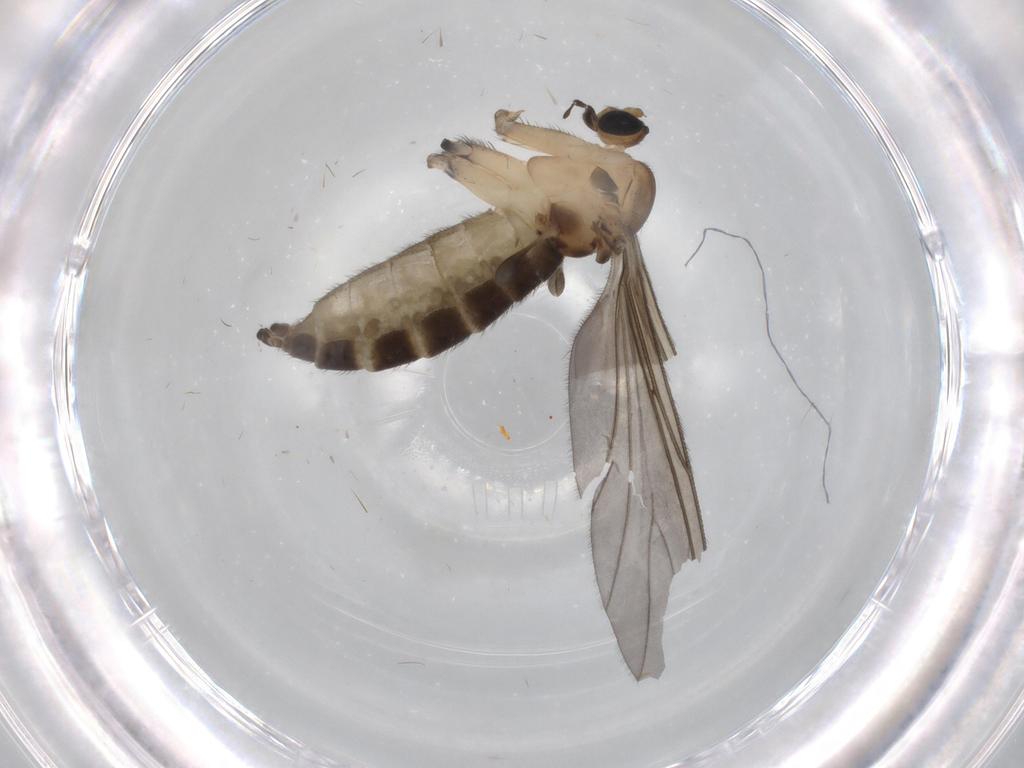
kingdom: Animalia
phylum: Arthropoda
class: Insecta
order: Diptera
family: Sciaridae
